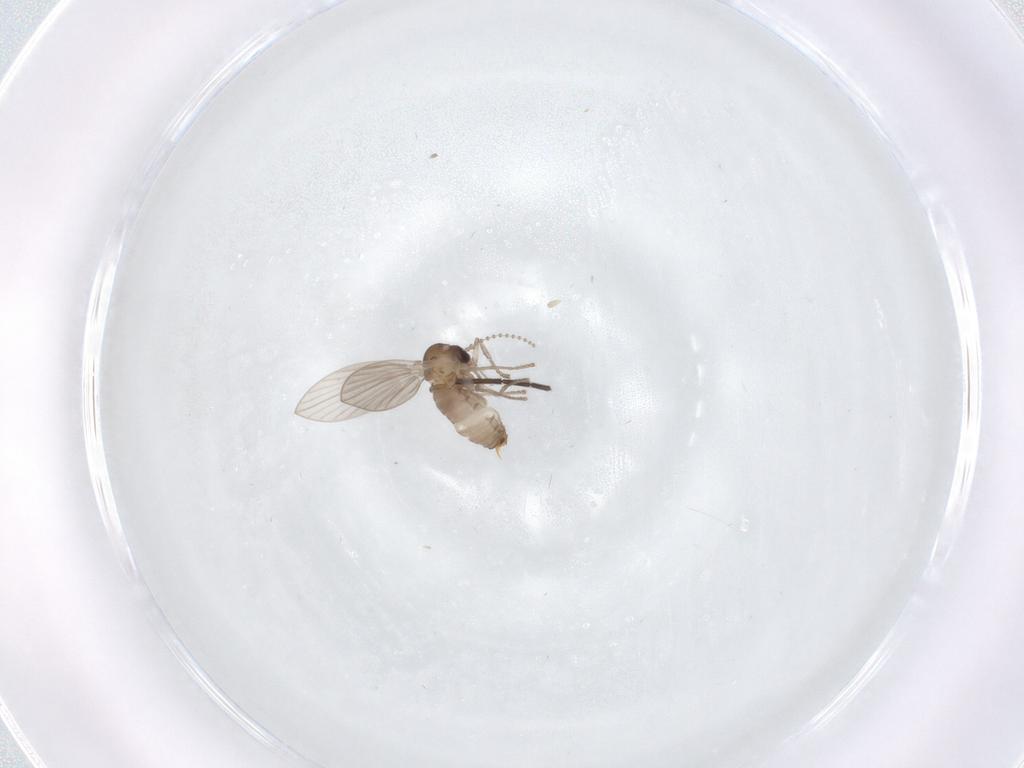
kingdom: Animalia
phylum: Arthropoda
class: Insecta
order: Diptera
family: Psychodidae
